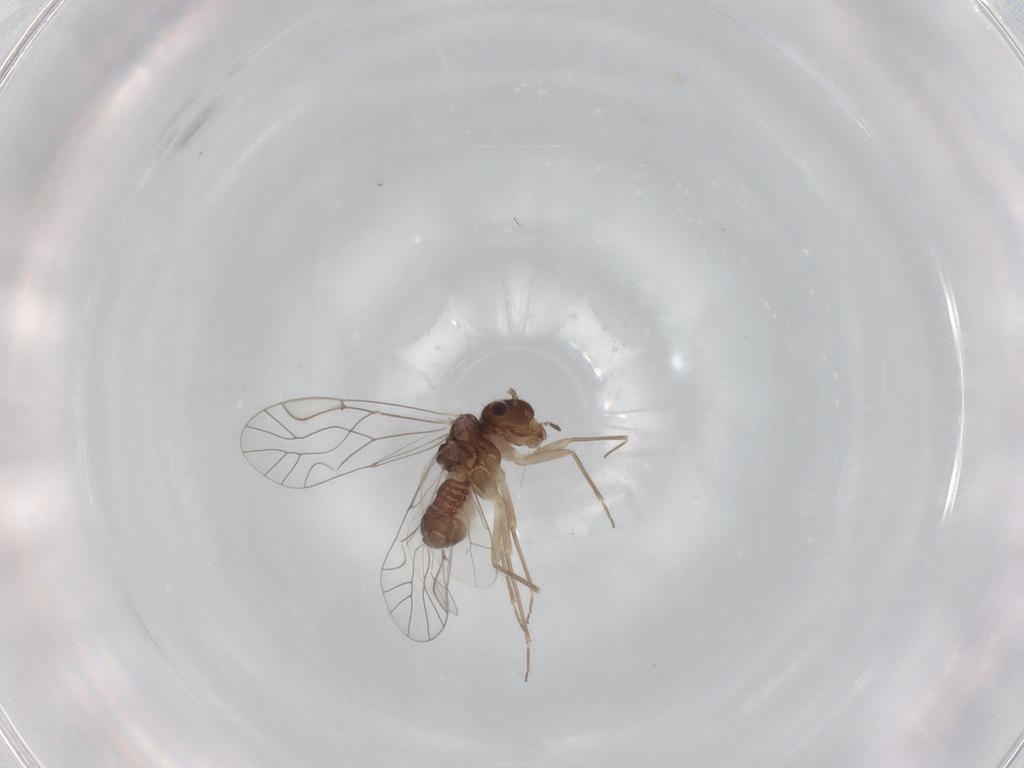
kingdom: Animalia
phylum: Arthropoda
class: Insecta
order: Psocodea
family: Lachesillidae
